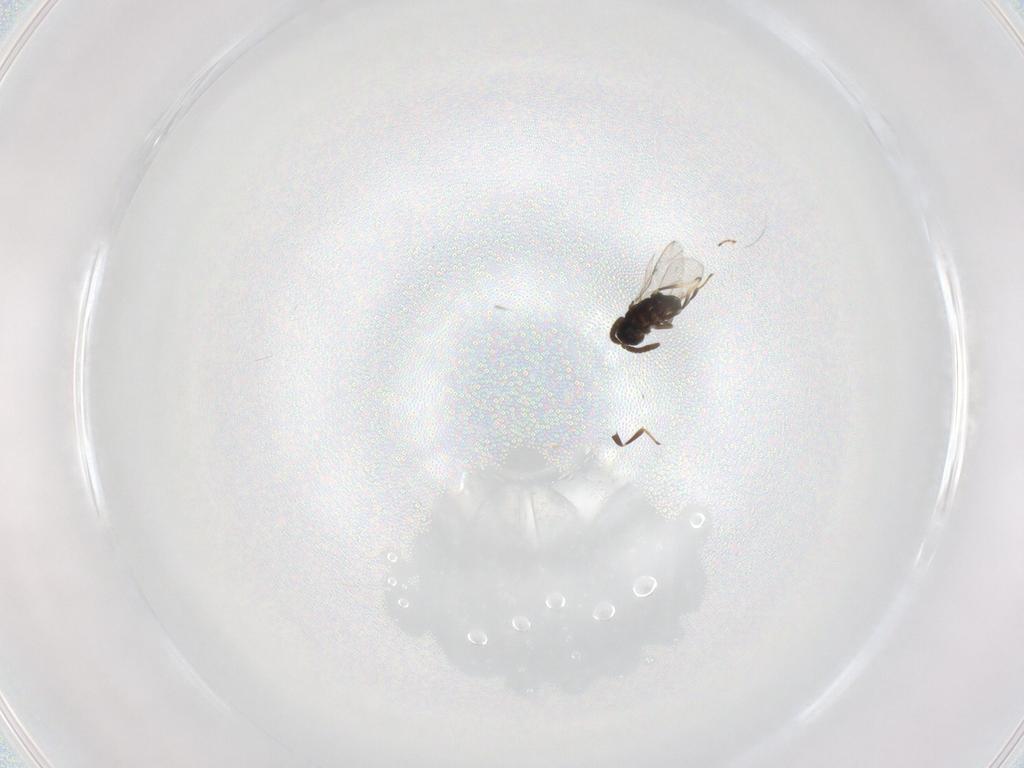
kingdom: Animalia
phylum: Arthropoda
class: Insecta
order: Hymenoptera
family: Encyrtidae
